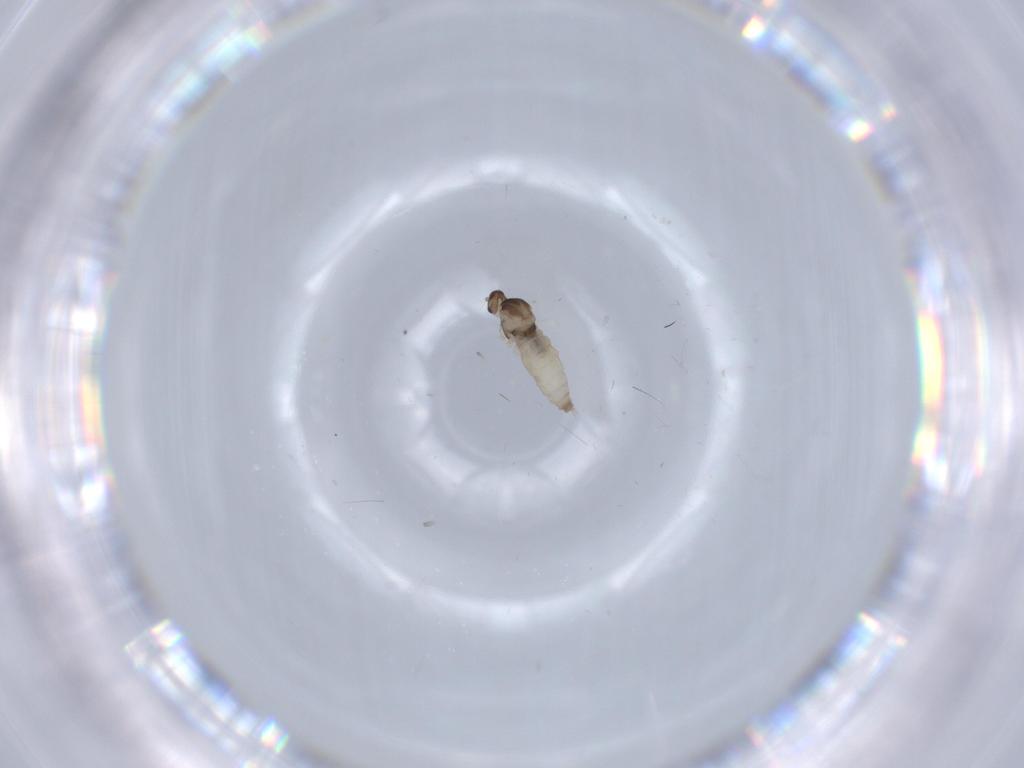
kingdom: Animalia
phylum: Arthropoda
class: Insecta
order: Diptera
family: Cecidomyiidae
